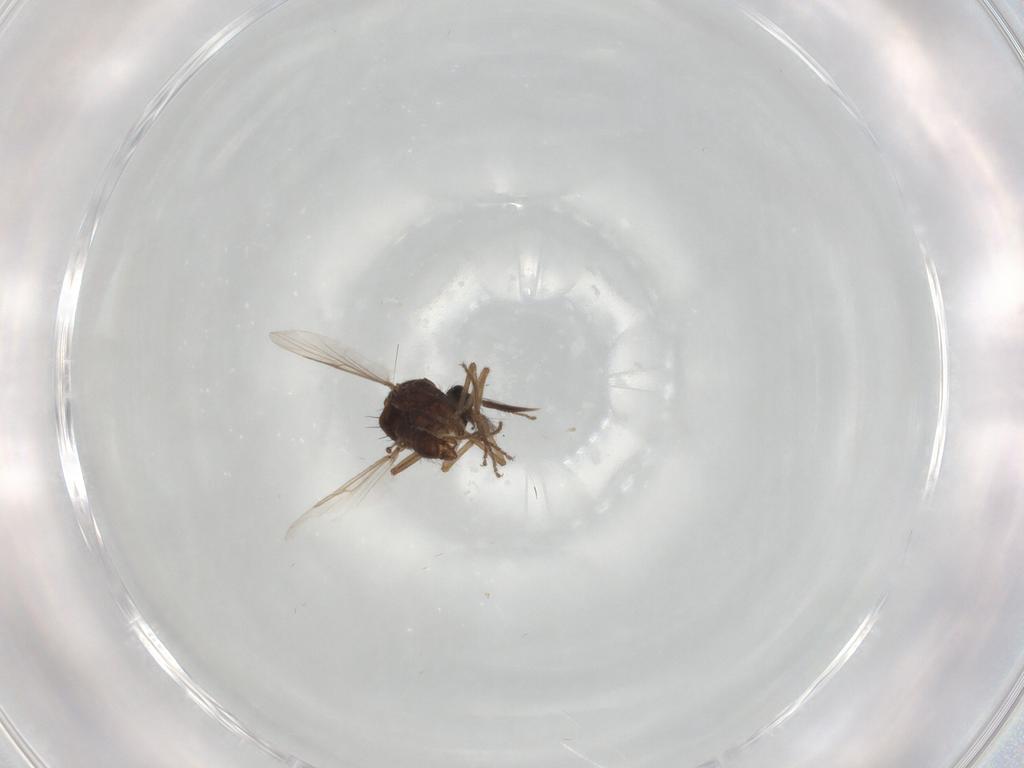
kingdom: Animalia
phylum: Arthropoda
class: Insecta
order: Diptera
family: Ceratopogonidae
